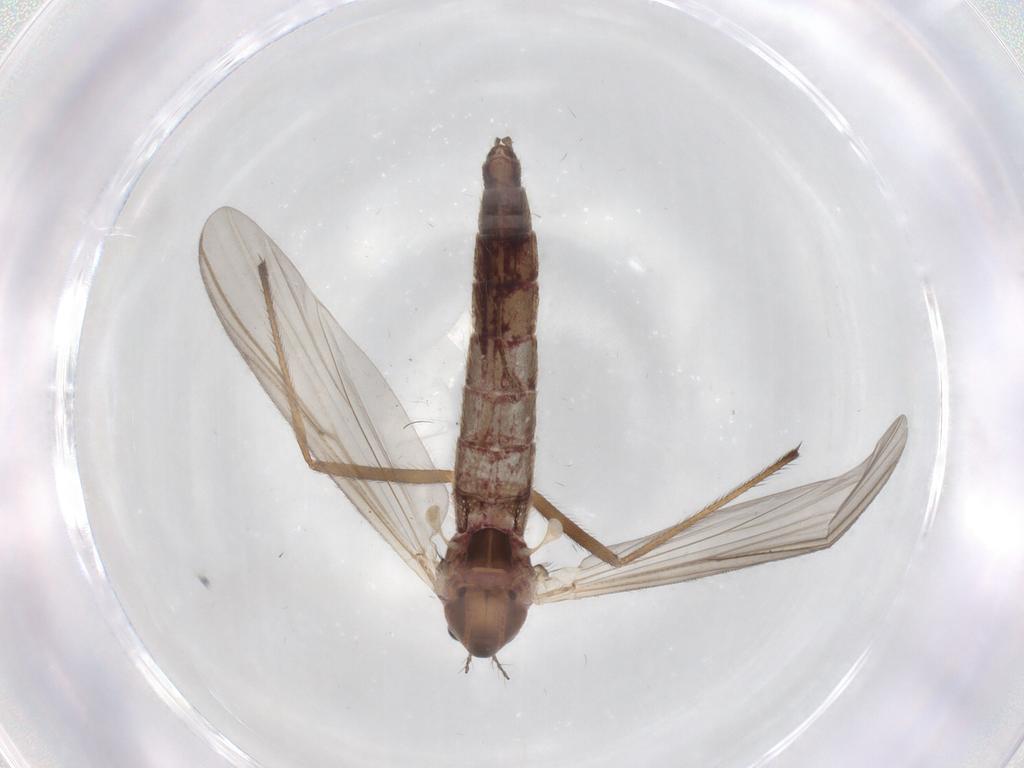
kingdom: Animalia
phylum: Arthropoda
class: Insecta
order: Diptera
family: Chironomidae
